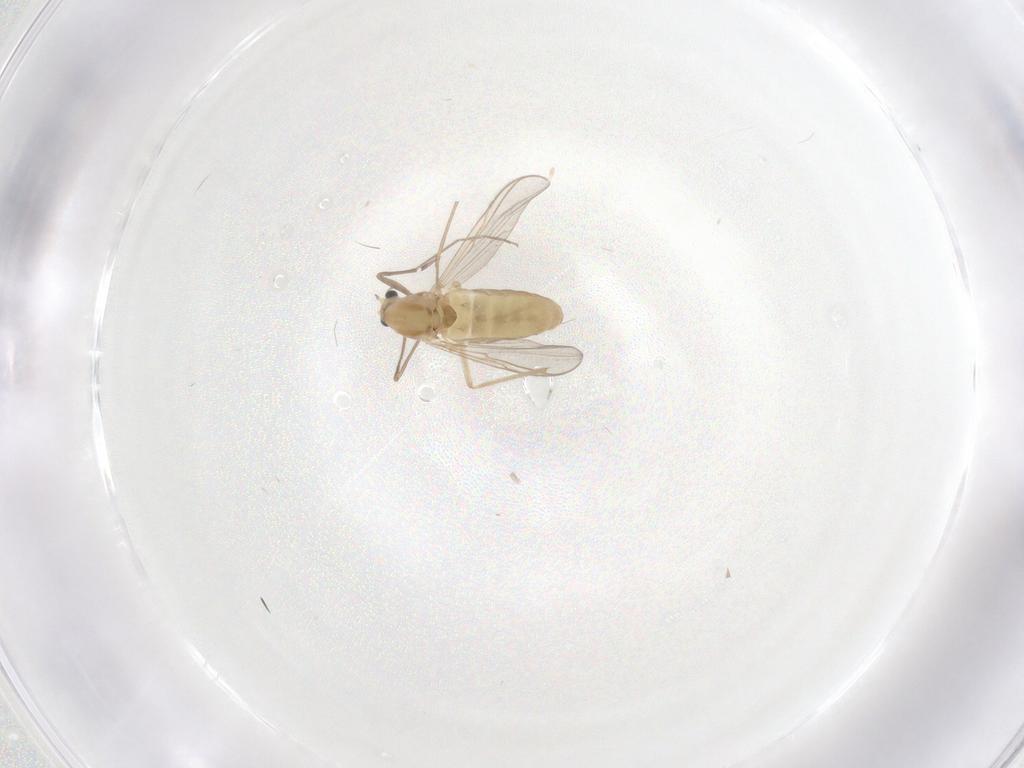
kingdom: Animalia
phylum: Arthropoda
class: Insecta
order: Diptera
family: Chironomidae
